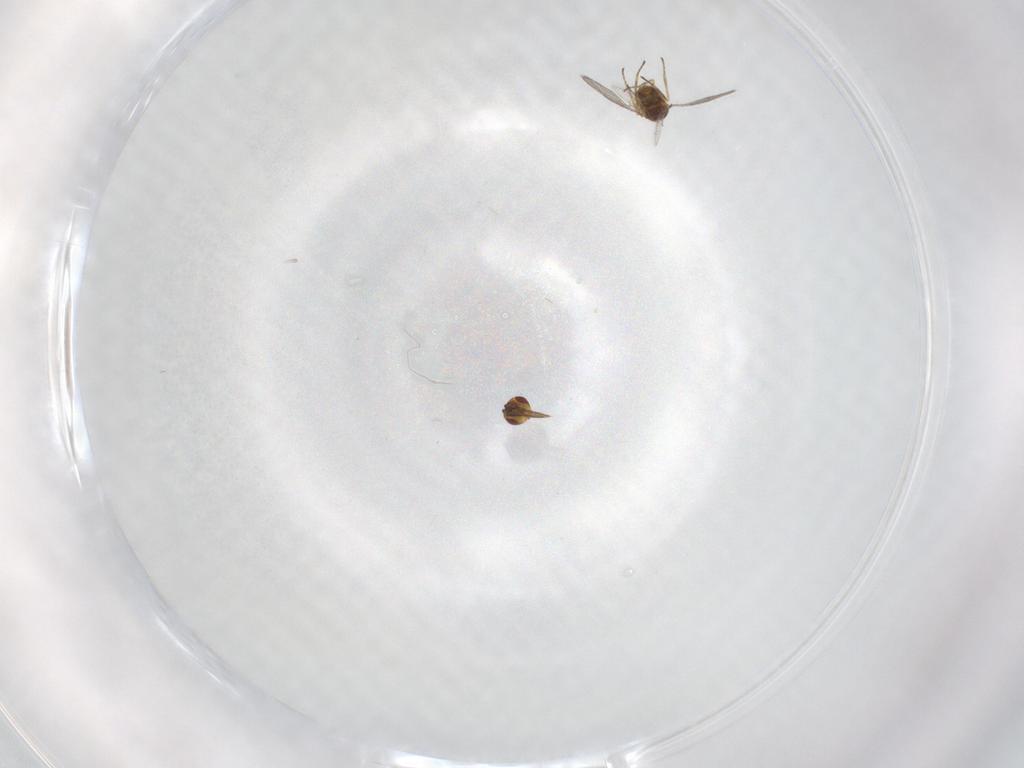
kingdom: Animalia
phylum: Arthropoda
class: Insecta
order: Hymenoptera
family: Eulophidae
